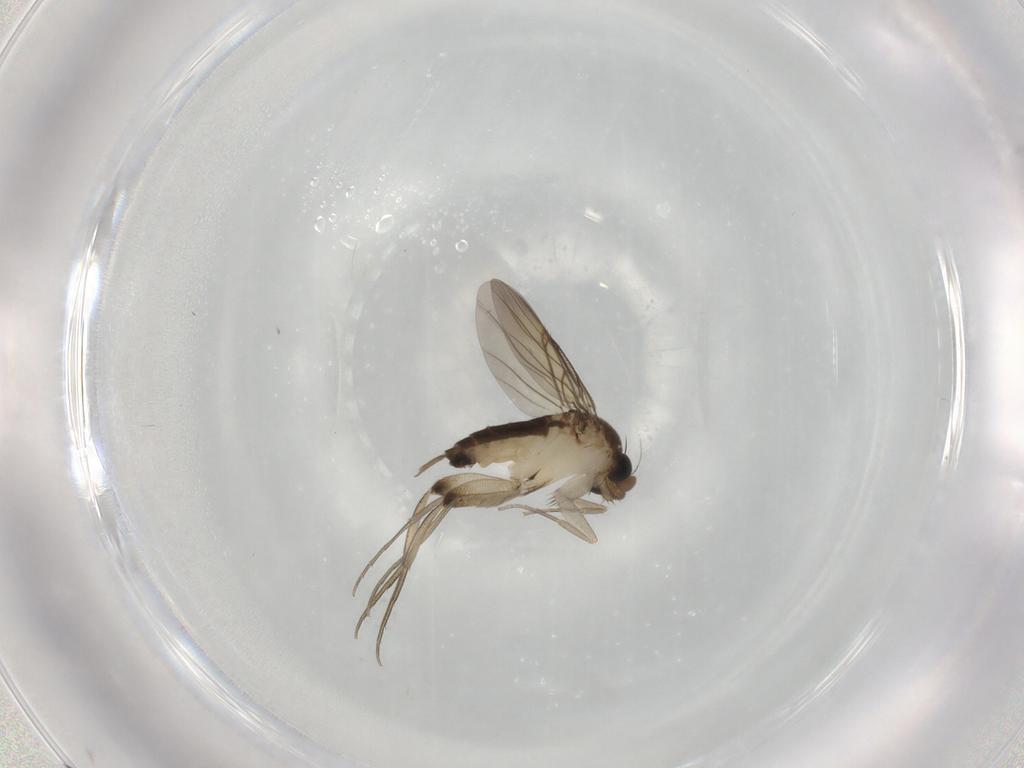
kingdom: Animalia
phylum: Arthropoda
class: Insecta
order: Diptera
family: Phoridae
